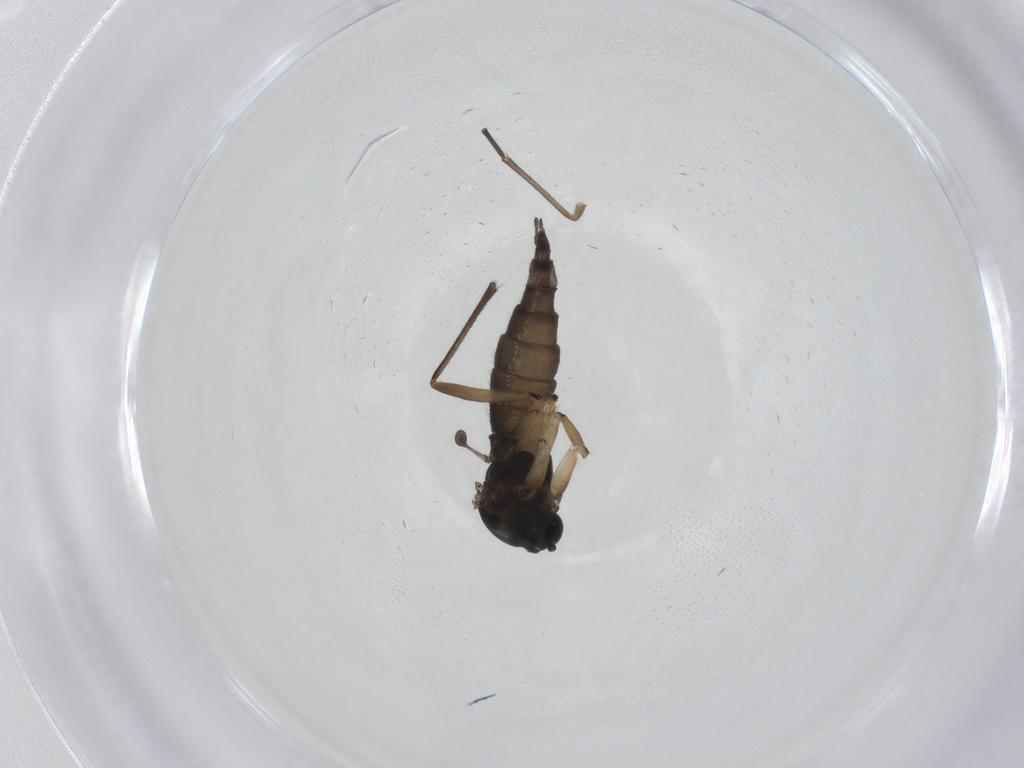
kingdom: Animalia
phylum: Arthropoda
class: Insecta
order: Diptera
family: Sciaridae
